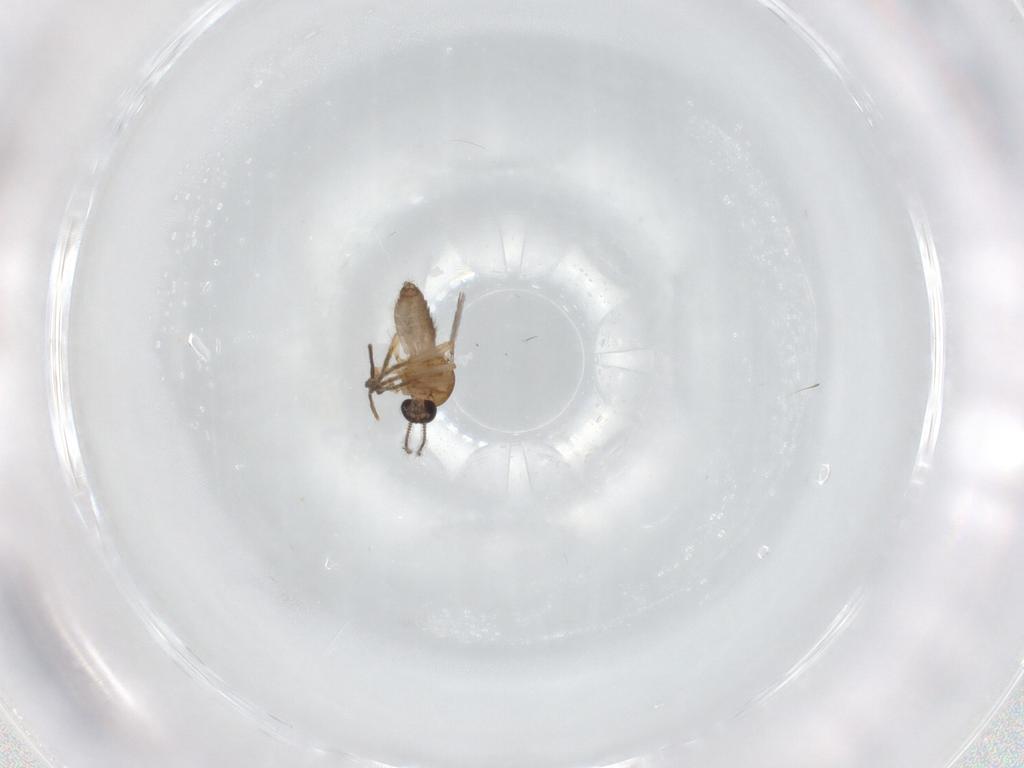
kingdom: Animalia
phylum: Arthropoda
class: Insecta
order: Diptera
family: Ceratopogonidae
